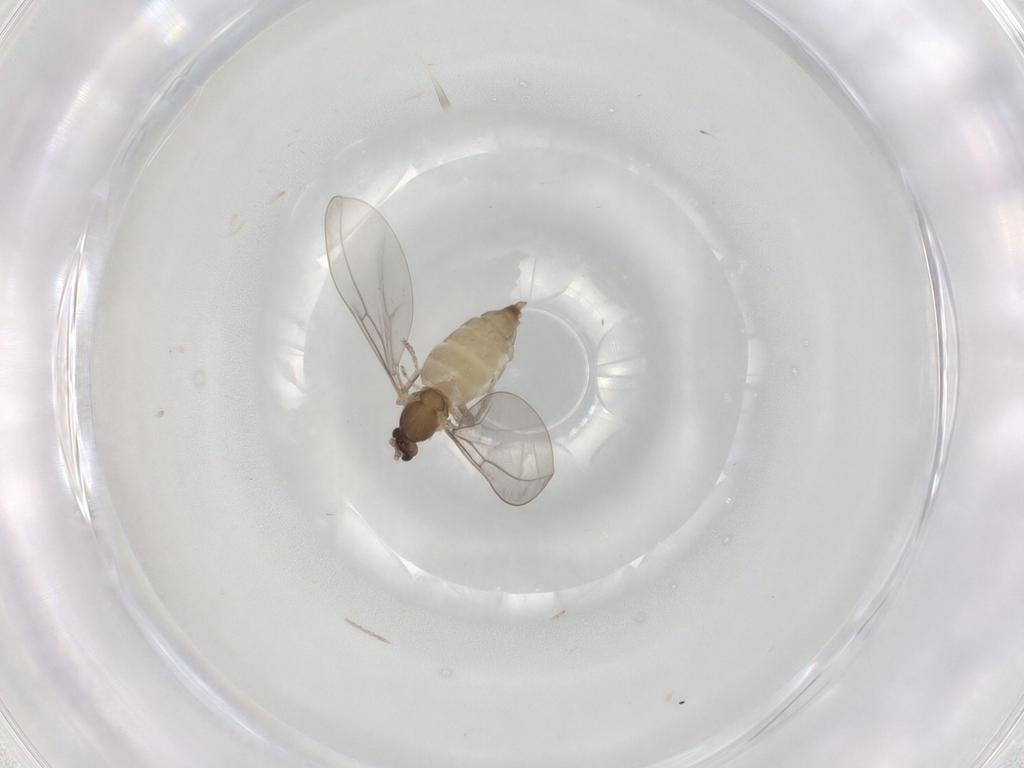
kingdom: Animalia
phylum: Arthropoda
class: Insecta
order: Diptera
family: Cecidomyiidae
